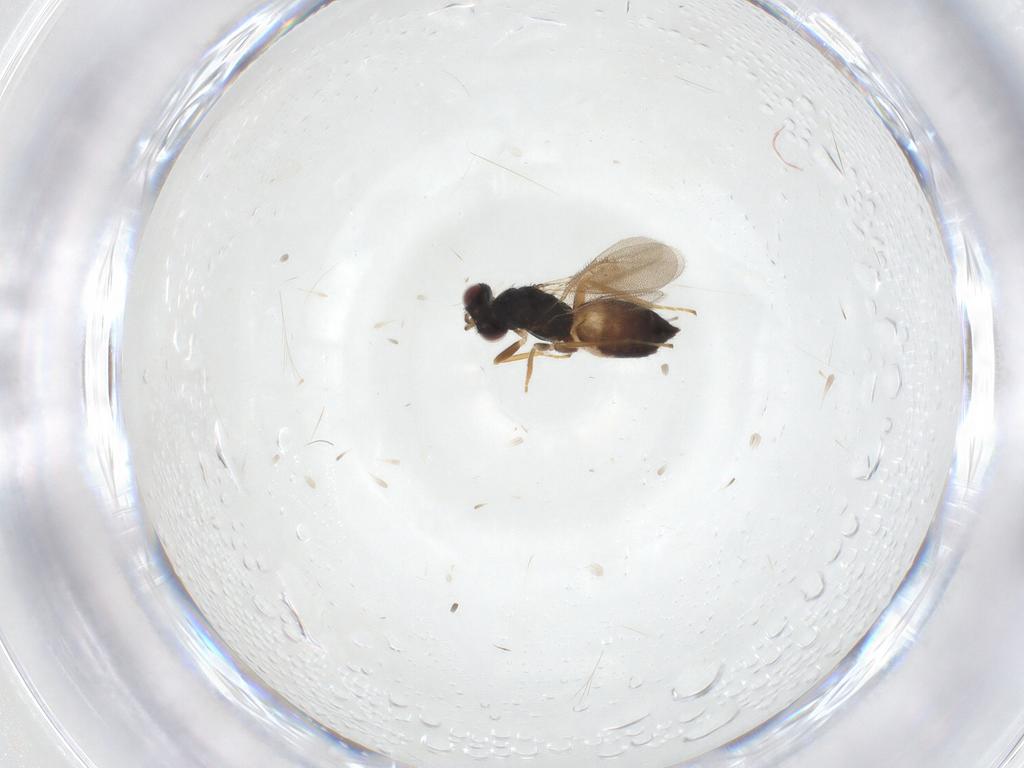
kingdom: Animalia
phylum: Arthropoda
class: Insecta
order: Hymenoptera
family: Eulophidae
